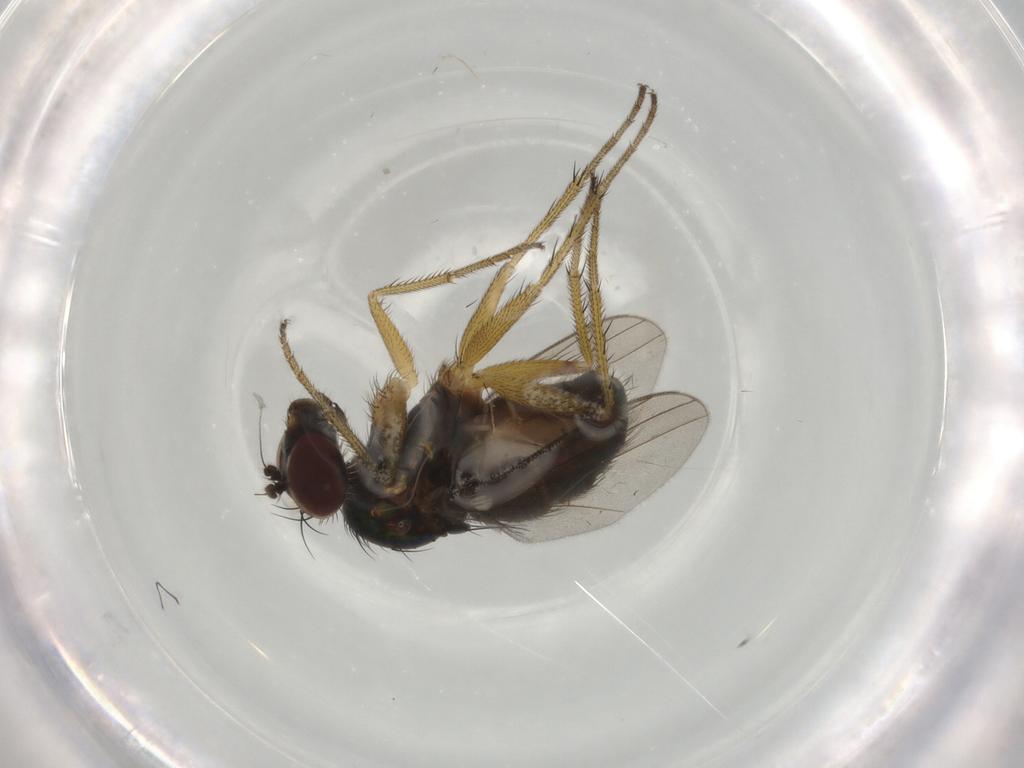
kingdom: Animalia
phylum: Arthropoda
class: Insecta
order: Diptera
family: Dolichopodidae
